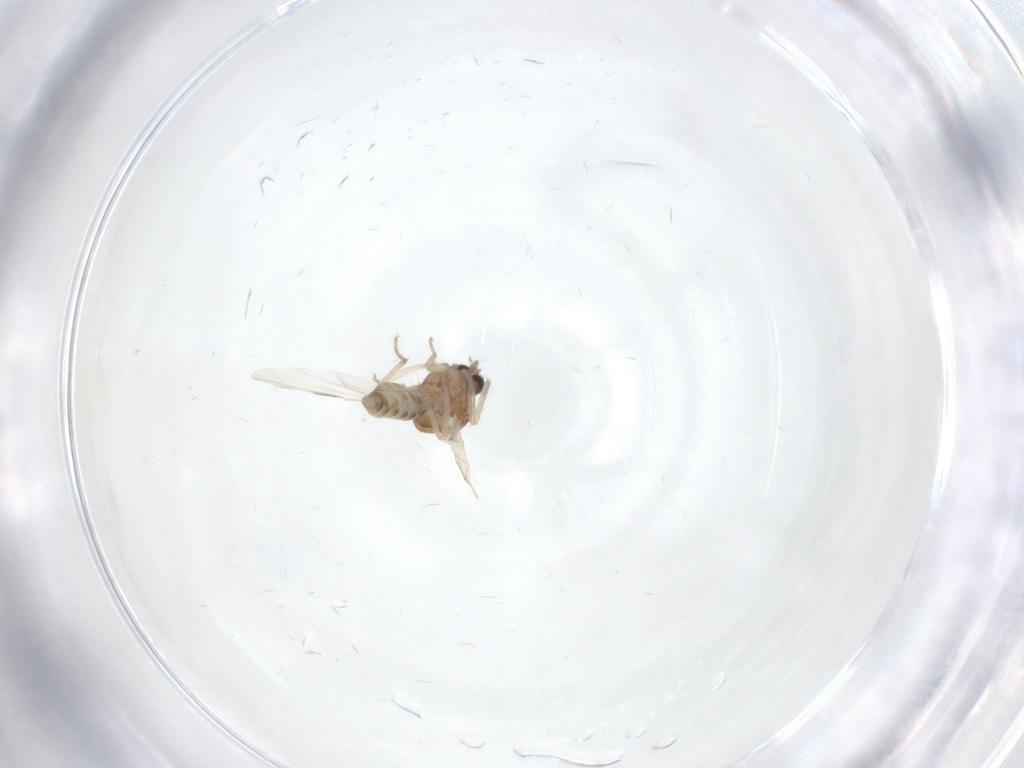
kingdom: Animalia
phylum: Arthropoda
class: Insecta
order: Diptera
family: Ceratopogonidae
